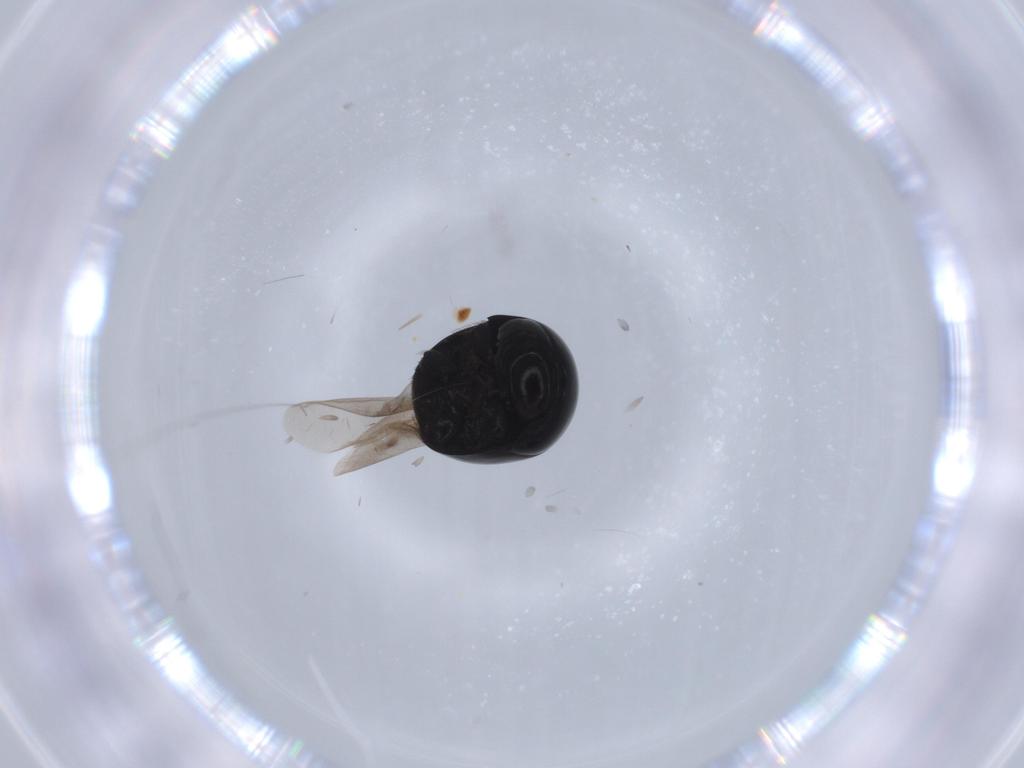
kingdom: Animalia
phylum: Arthropoda
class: Insecta
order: Coleoptera
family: Cybocephalidae
